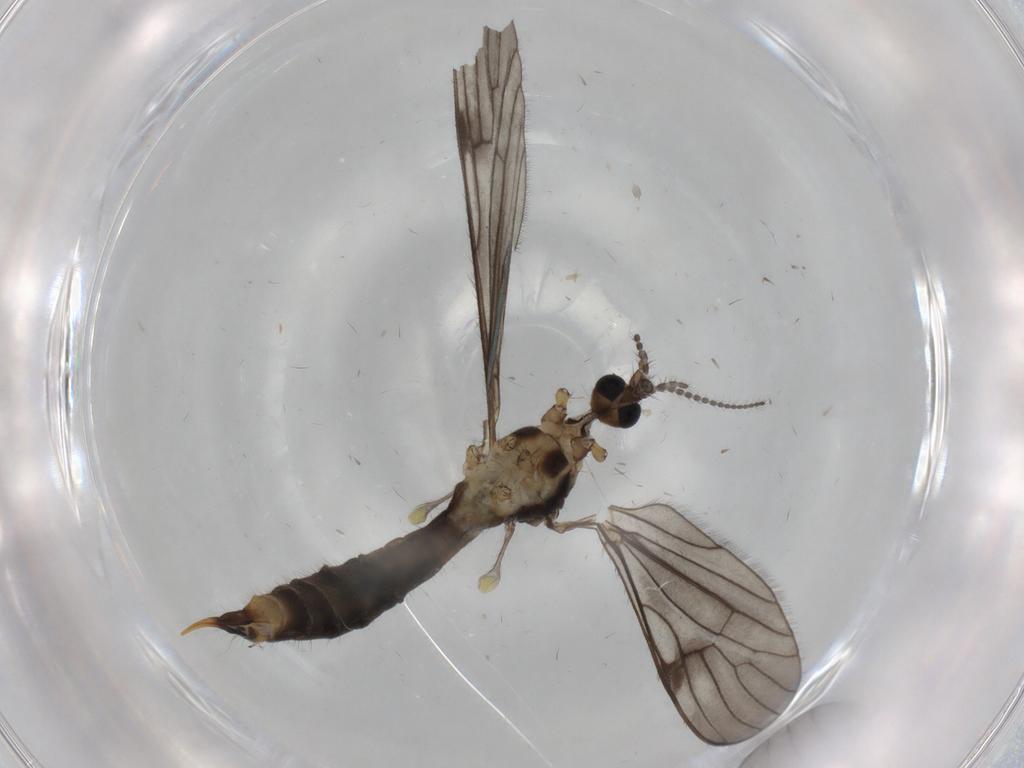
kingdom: Animalia
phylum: Arthropoda
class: Insecta
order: Diptera
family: Limoniidae
